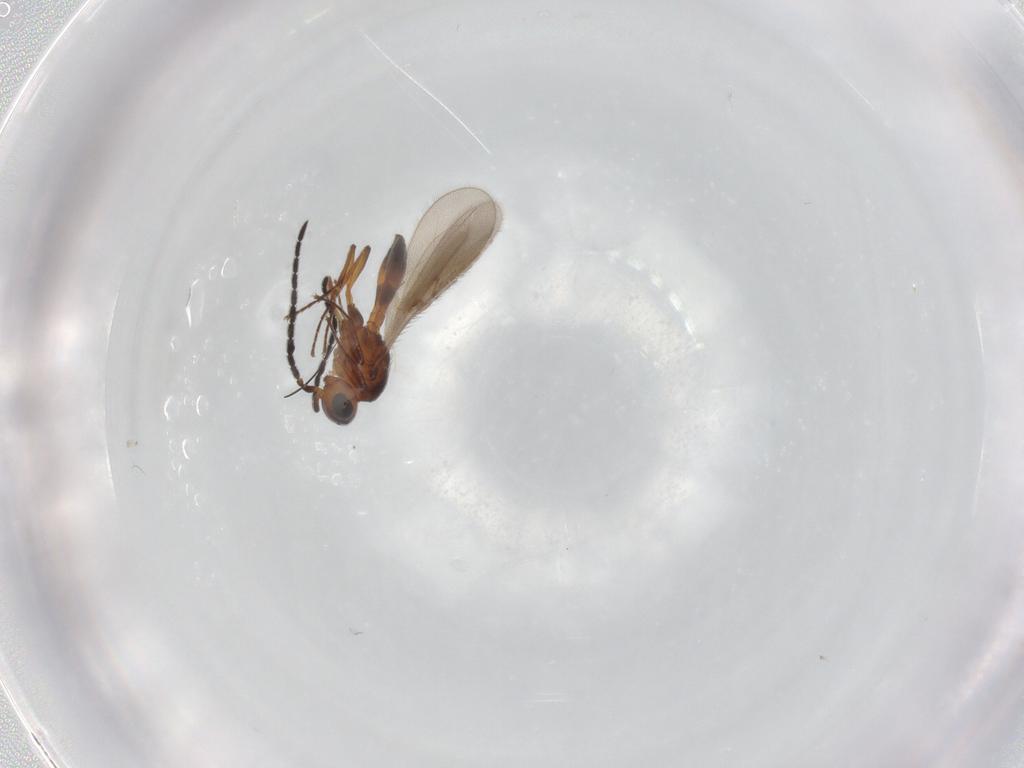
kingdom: Animalia
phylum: Arthropoda
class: Insecta
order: Hymenoptera
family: Scelionidae
